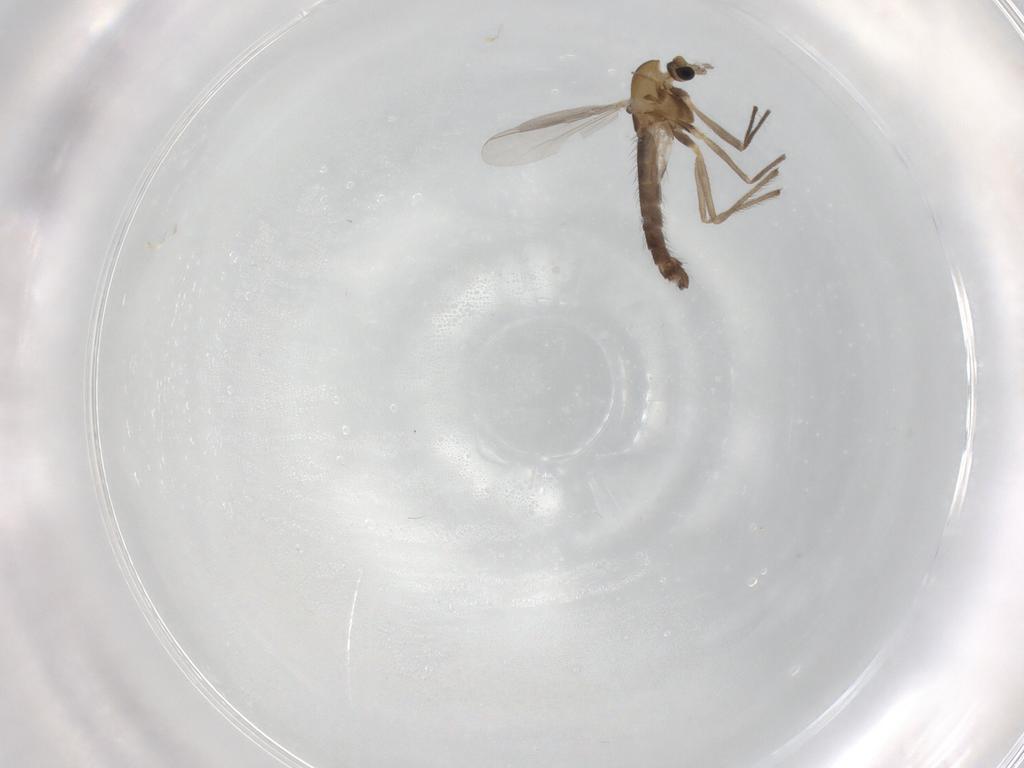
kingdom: Animalia
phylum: Arthropoda
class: Insecta
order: Diptera
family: Chironomidae
